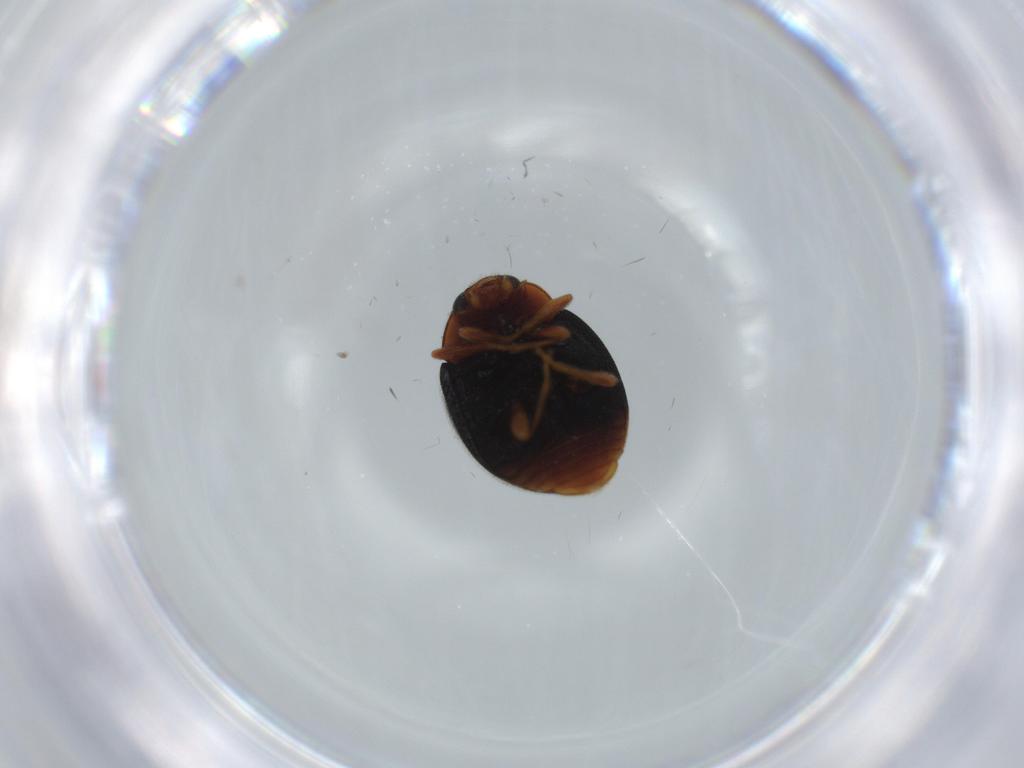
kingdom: Animalia
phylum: Arthropoda
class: Insecta
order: Coleoptera
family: Coccinellidae
